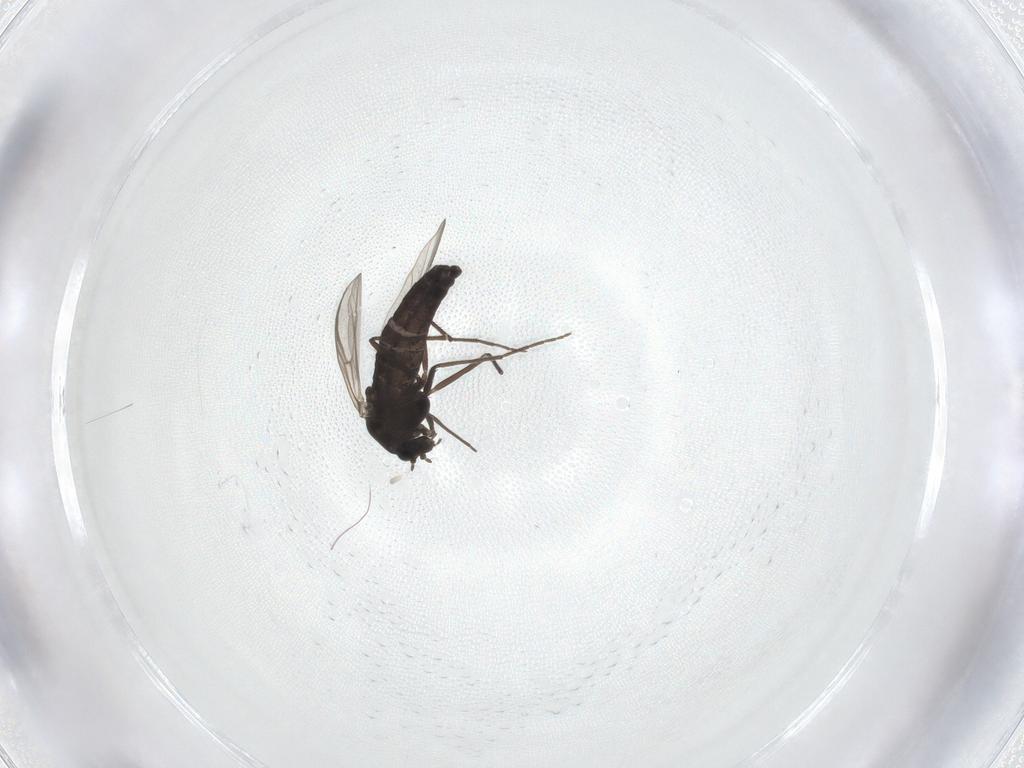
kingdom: Animalia
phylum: Arthropoda
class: Insecta
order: Diptera
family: Chironomidae
